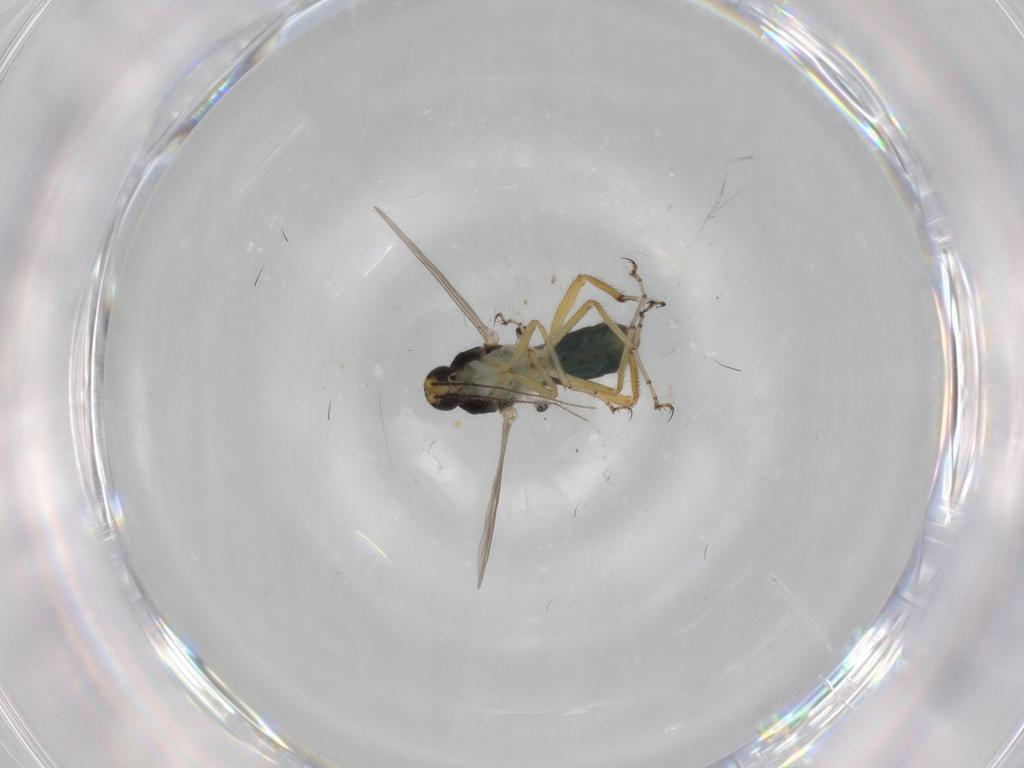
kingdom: Animalia
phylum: Arthropoda
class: Insecta
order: Diptera
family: Ceratopogonidae
